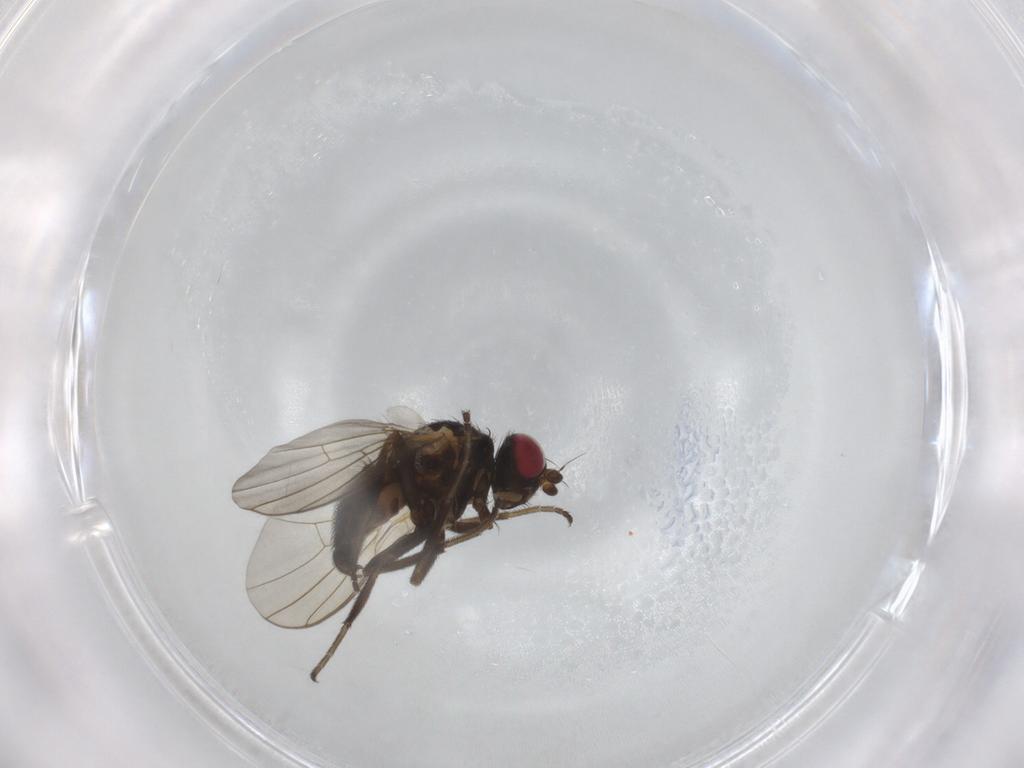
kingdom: Animalia
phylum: Arthropoda
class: Insecta
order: Diptera
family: Agromyzidae
